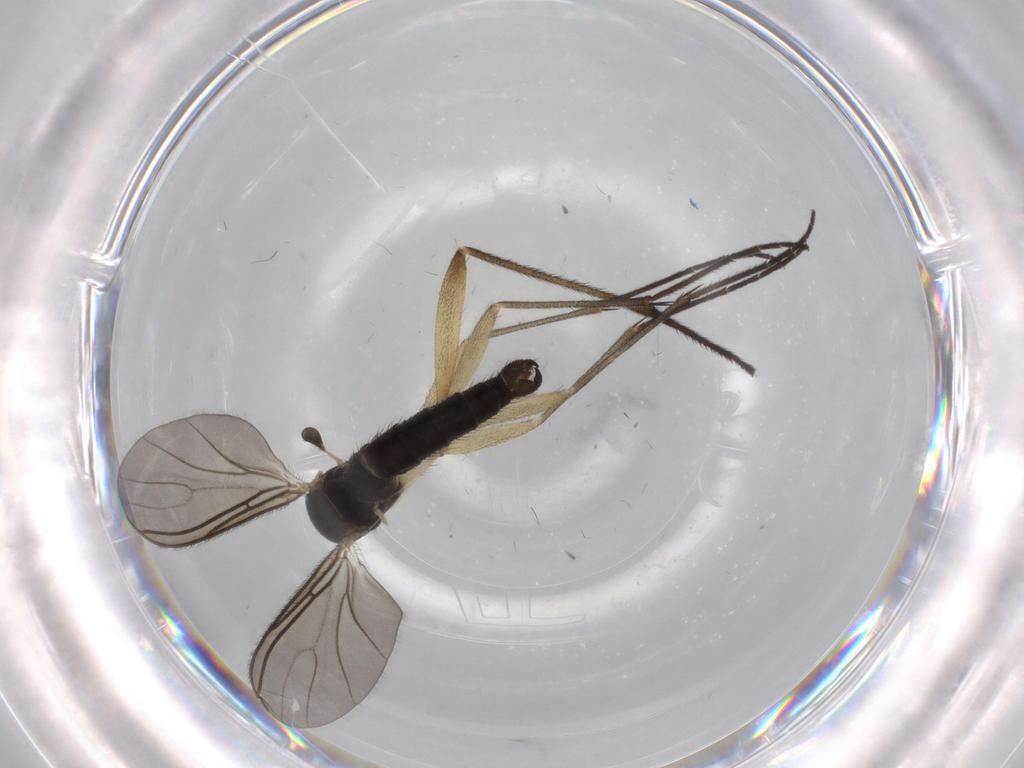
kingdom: Animalia
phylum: Arthropoda
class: Insecta
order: Diptera
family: Sciaridae
